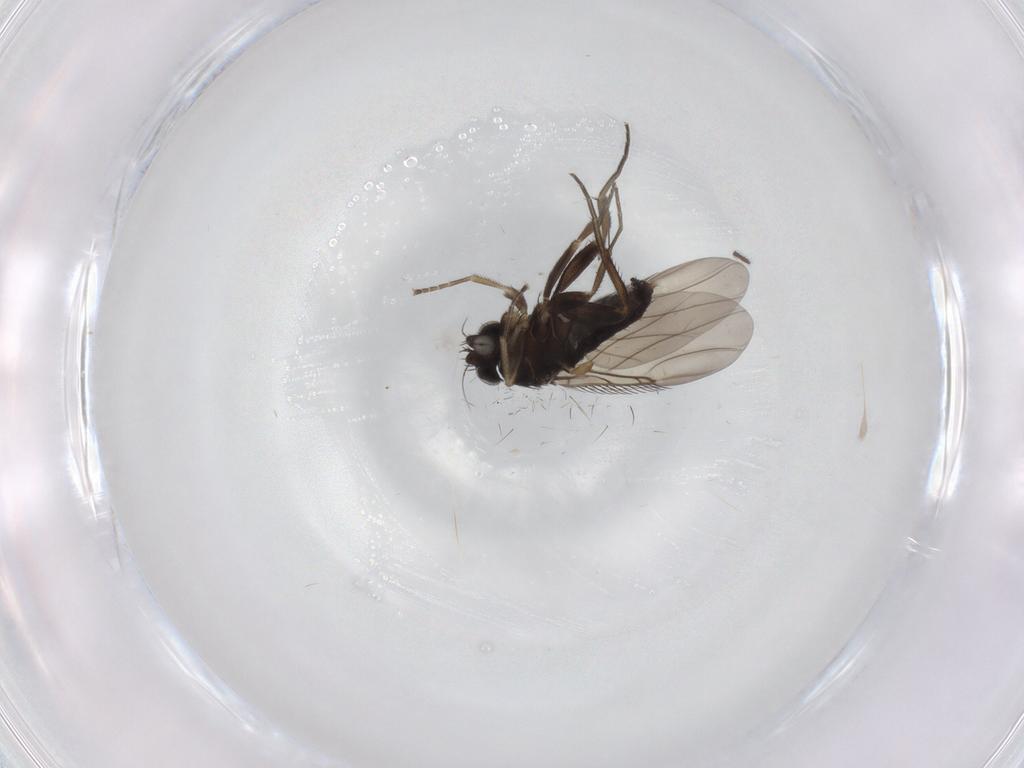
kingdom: Animalia
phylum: Arthropoda
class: Insecta
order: Diptera
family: Phoridae
